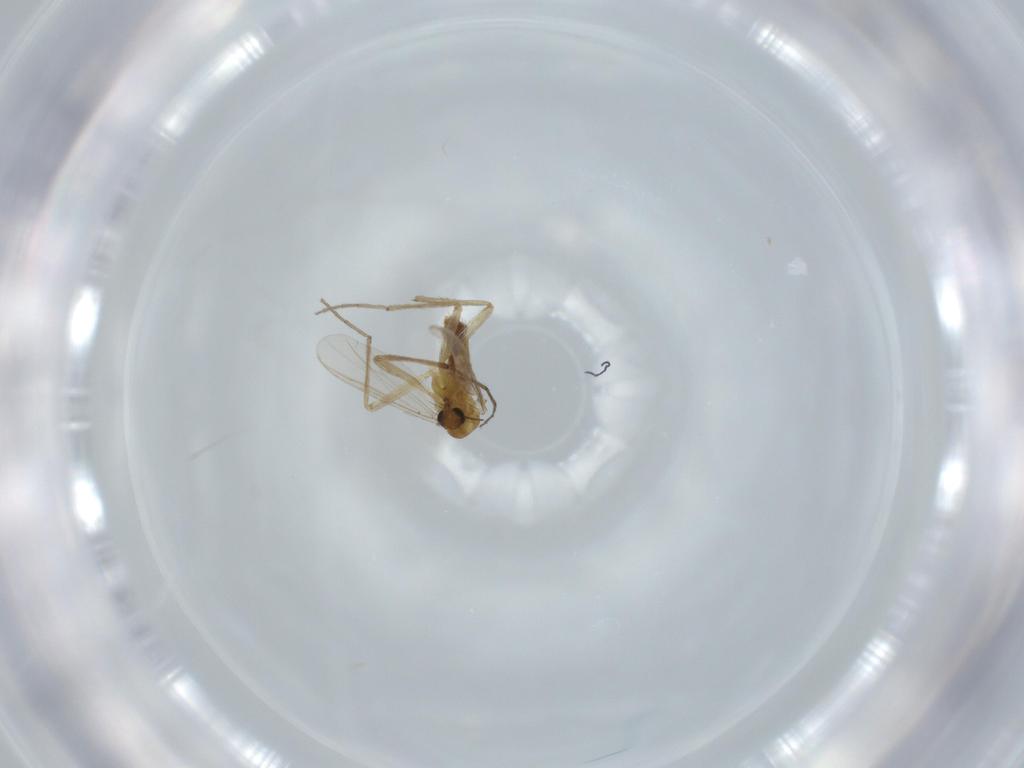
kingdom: Animalia
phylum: Arthropoda
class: Insecta
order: Diptera
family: Chironomidae
